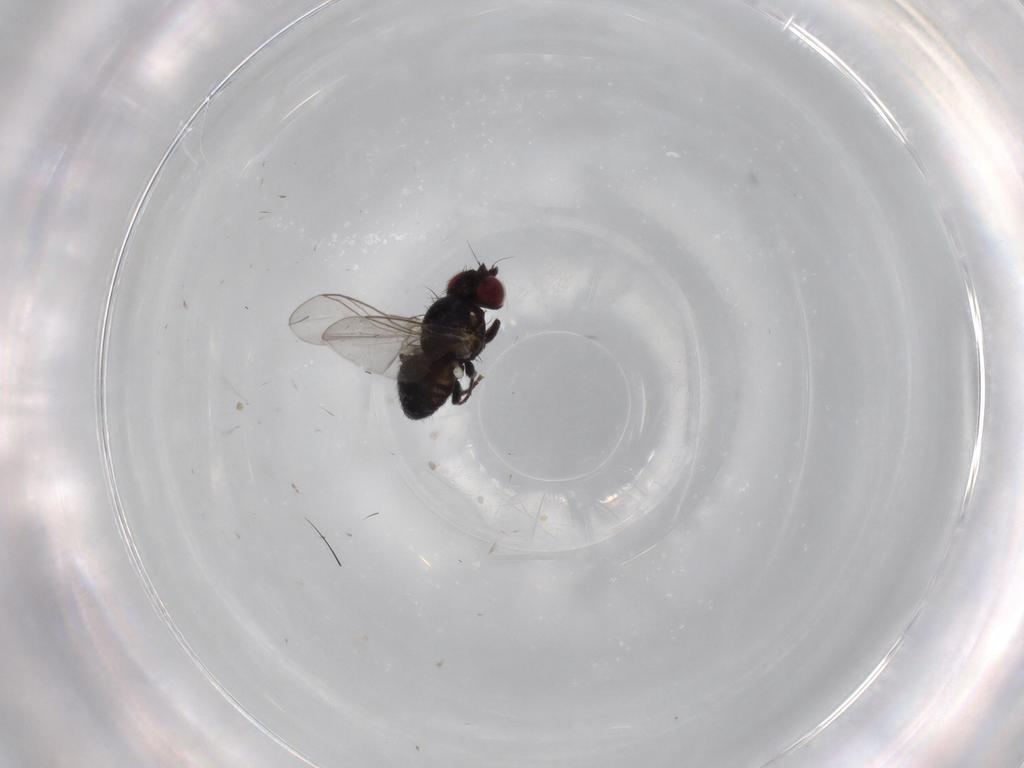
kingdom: Animalia
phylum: Arthropoda
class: Insecta
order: Diptera
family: Agromyzidae
